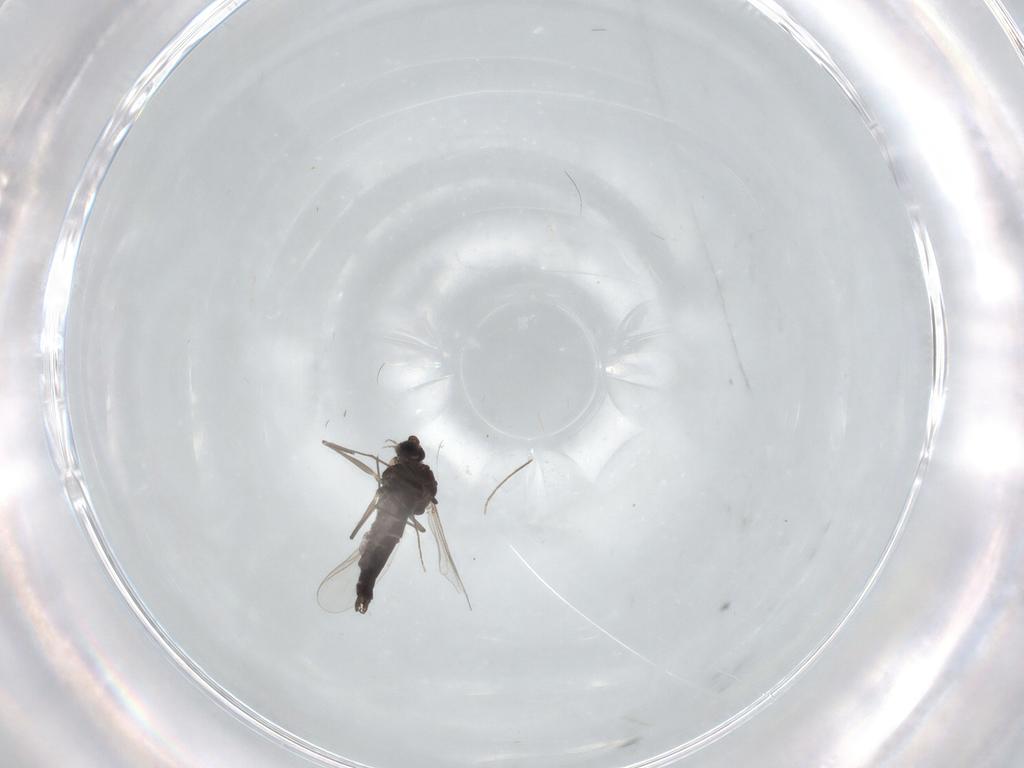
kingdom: Animalia
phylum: Arthropoda
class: Insecta
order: Diptera
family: Chironomidae
